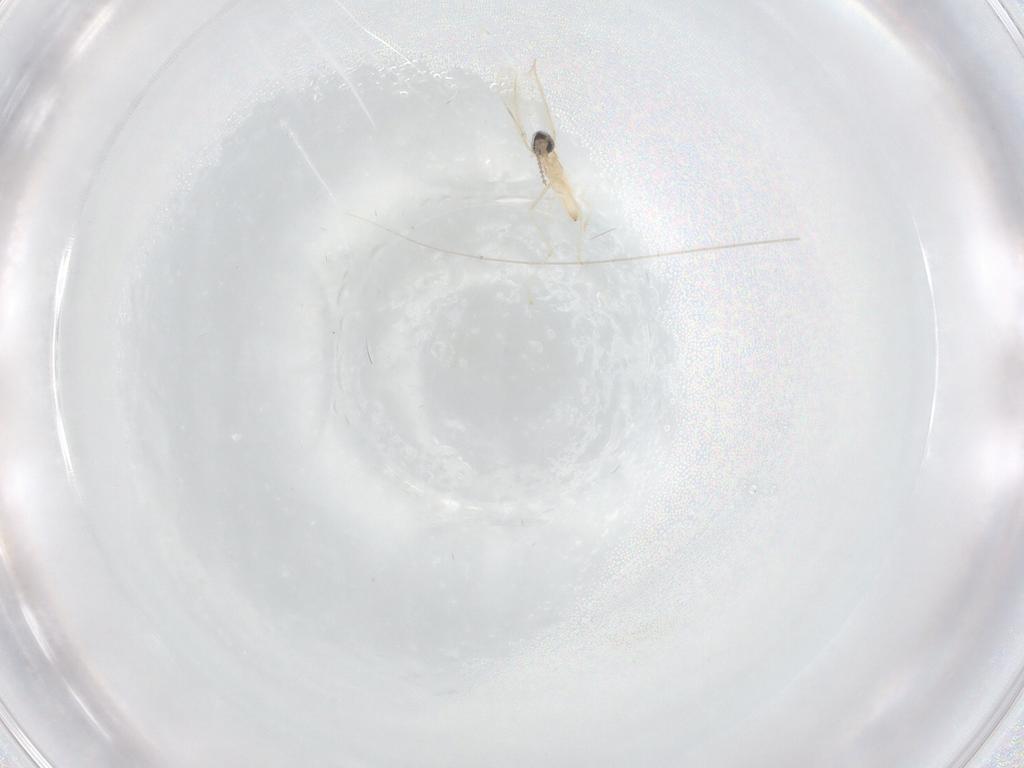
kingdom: Animalia
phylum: Arthropoda
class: Insecta
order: Diptera
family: Cecidomyiidae
